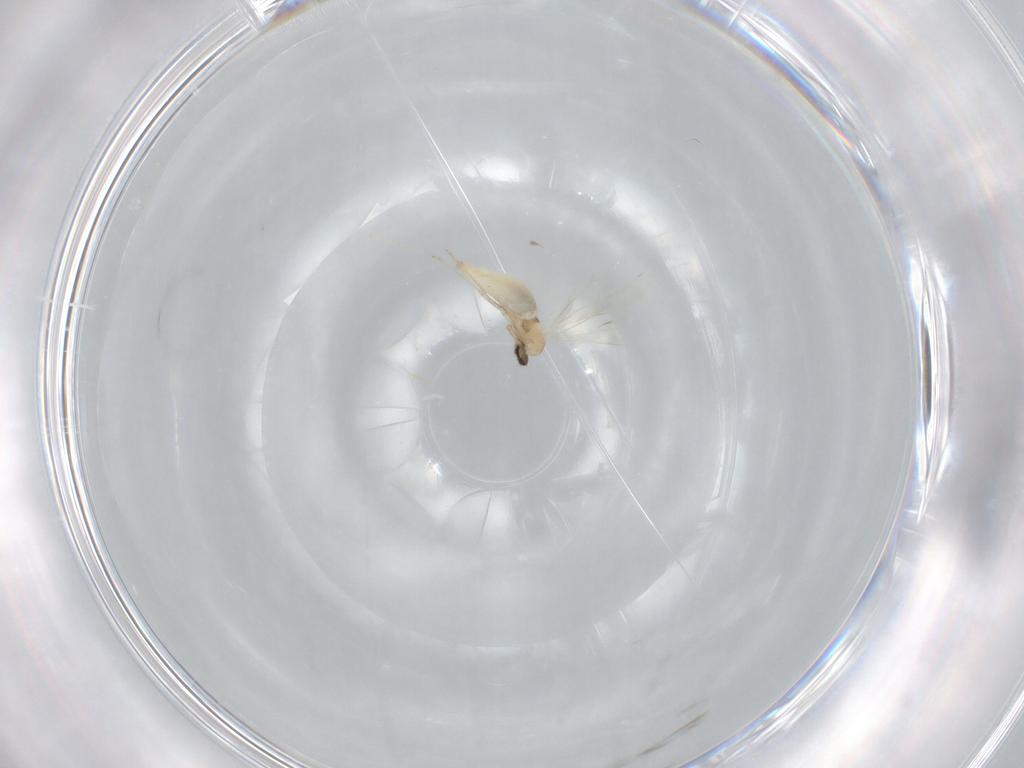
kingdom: Animalia
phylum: Arthropoda
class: Insecta
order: Diptera
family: Cecidomyiidae
